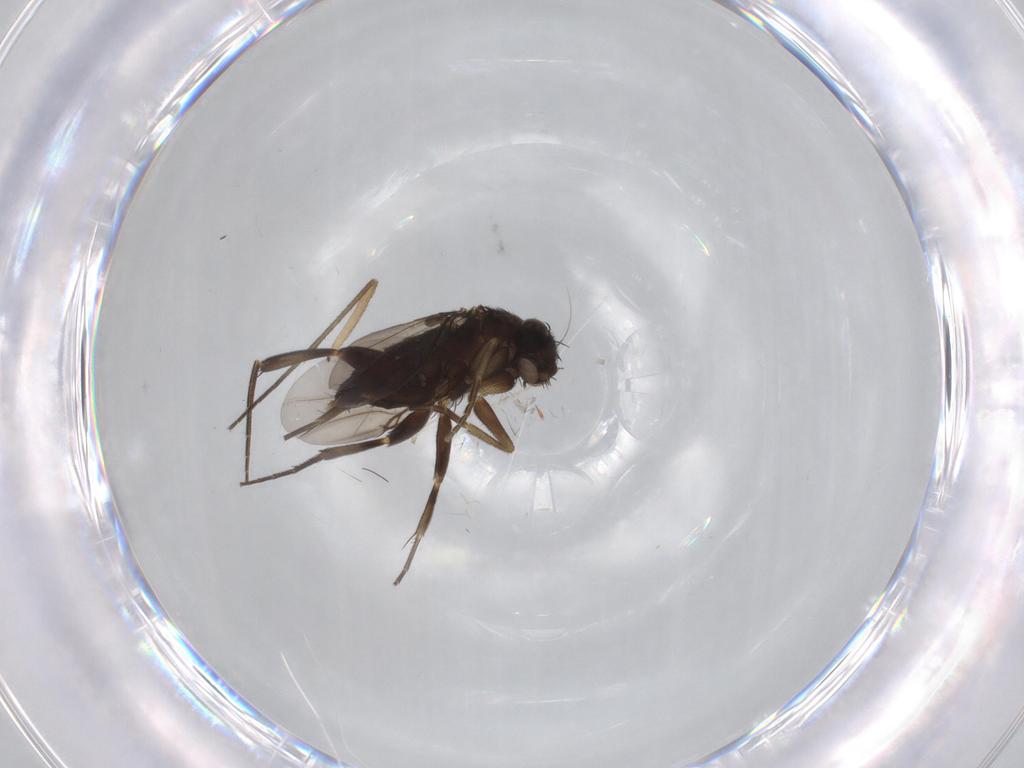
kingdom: Animalia
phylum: Arthropoda
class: Insecta
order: Diptera
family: Phoridae
